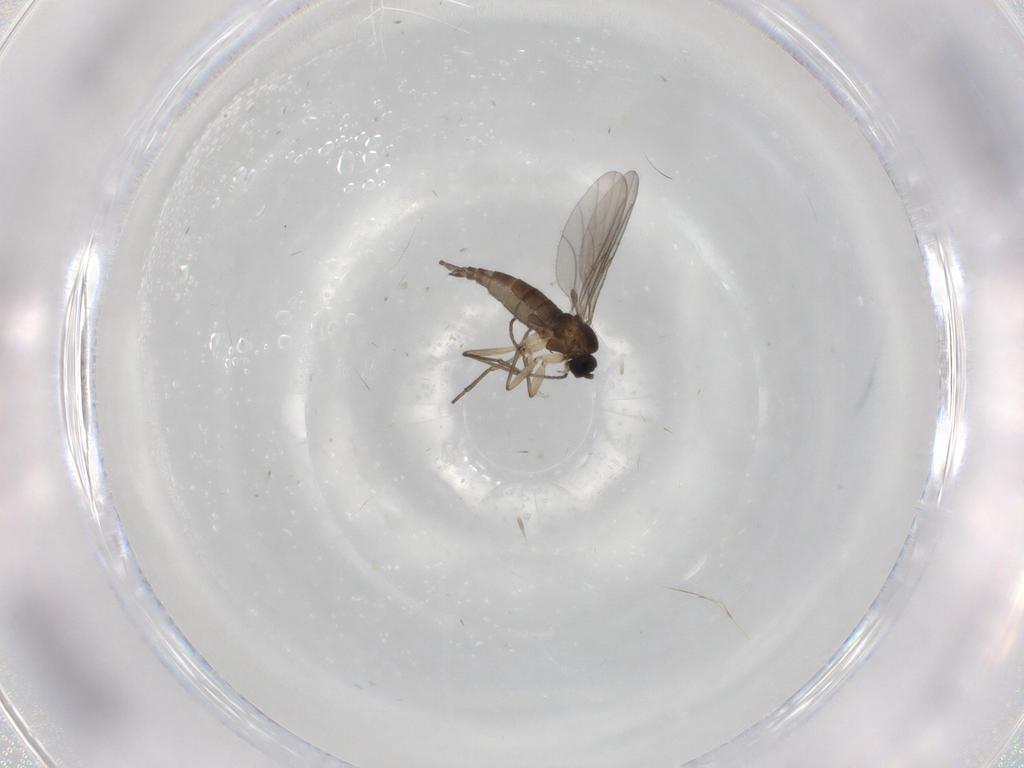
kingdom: Animalia
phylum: Arthropoda
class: Insecta
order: Diptera
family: Sciaridae
